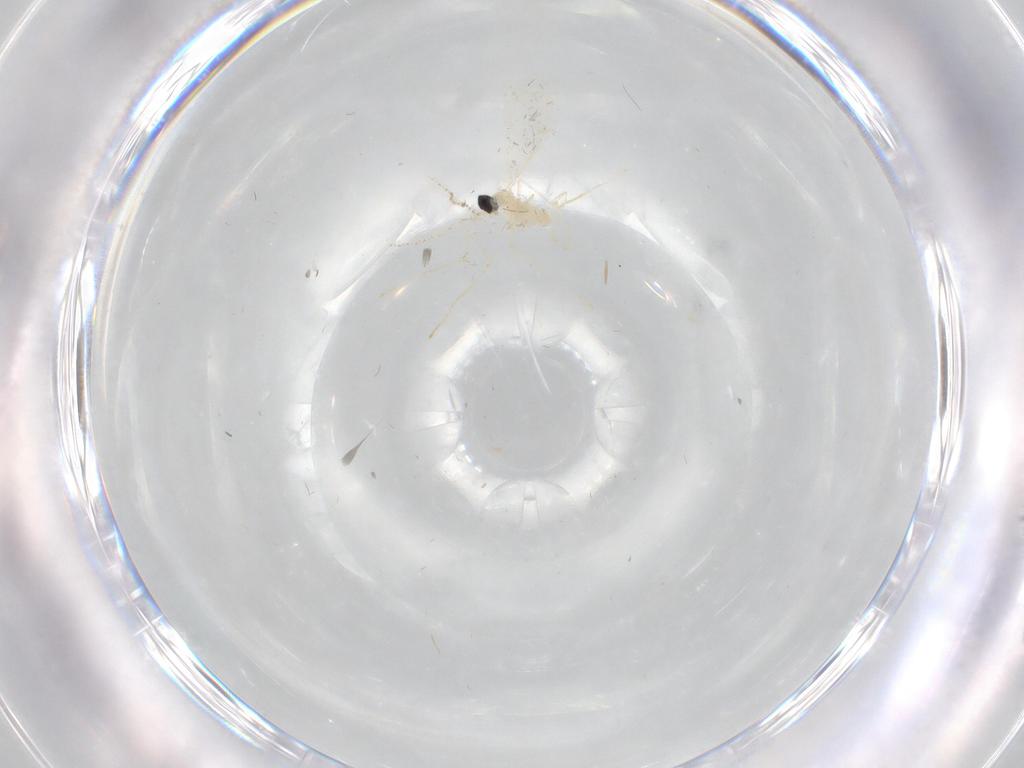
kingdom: Animalia
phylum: Arthropoda
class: Insecta
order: Diptera
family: Cecidomyiidae
